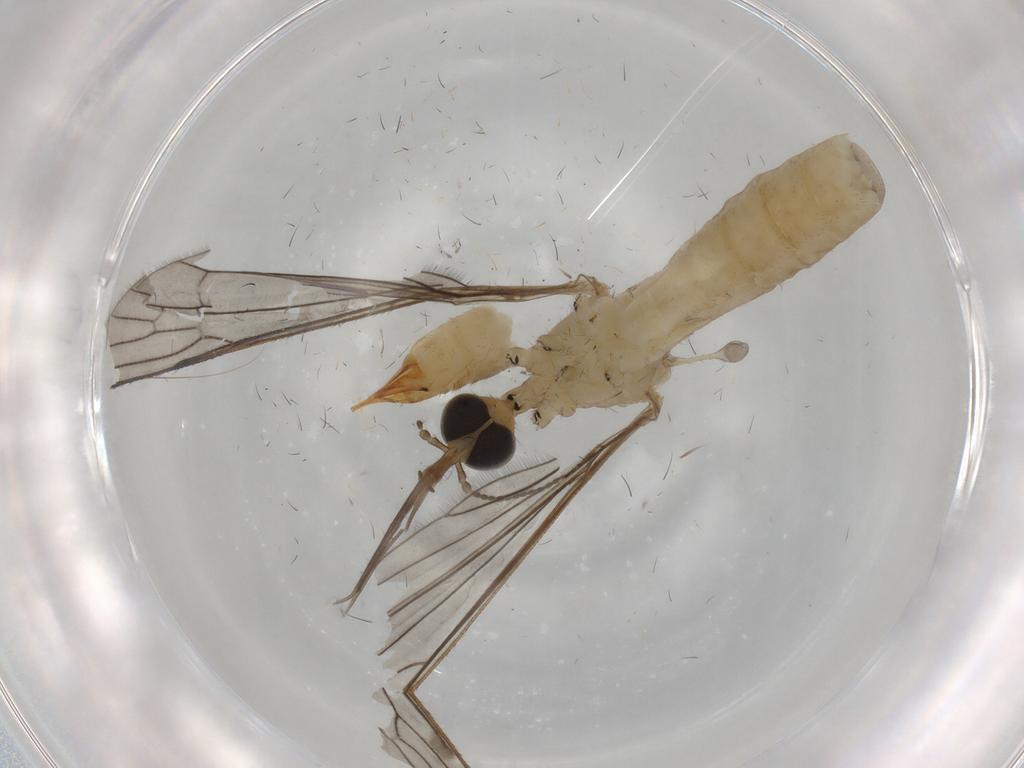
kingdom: Animalia
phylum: Arthropoda
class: Insecta
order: Diptera
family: Limoniidae
